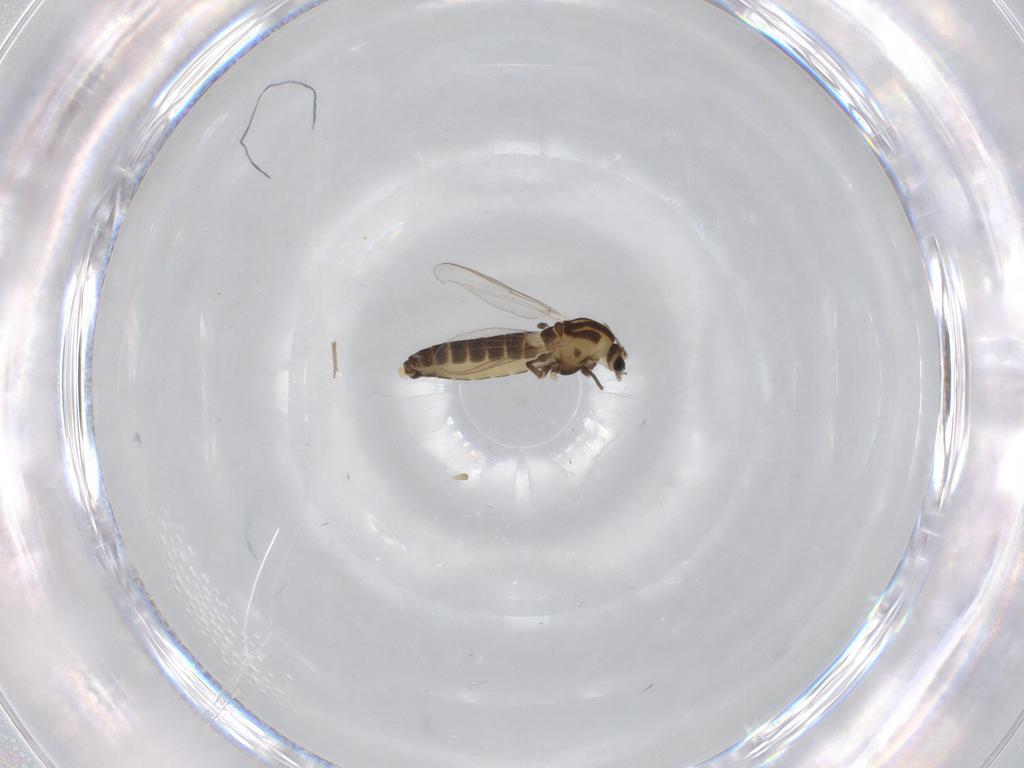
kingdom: Animalia
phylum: Arthropoda
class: Insecta
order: Diptera
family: Chironomidae
